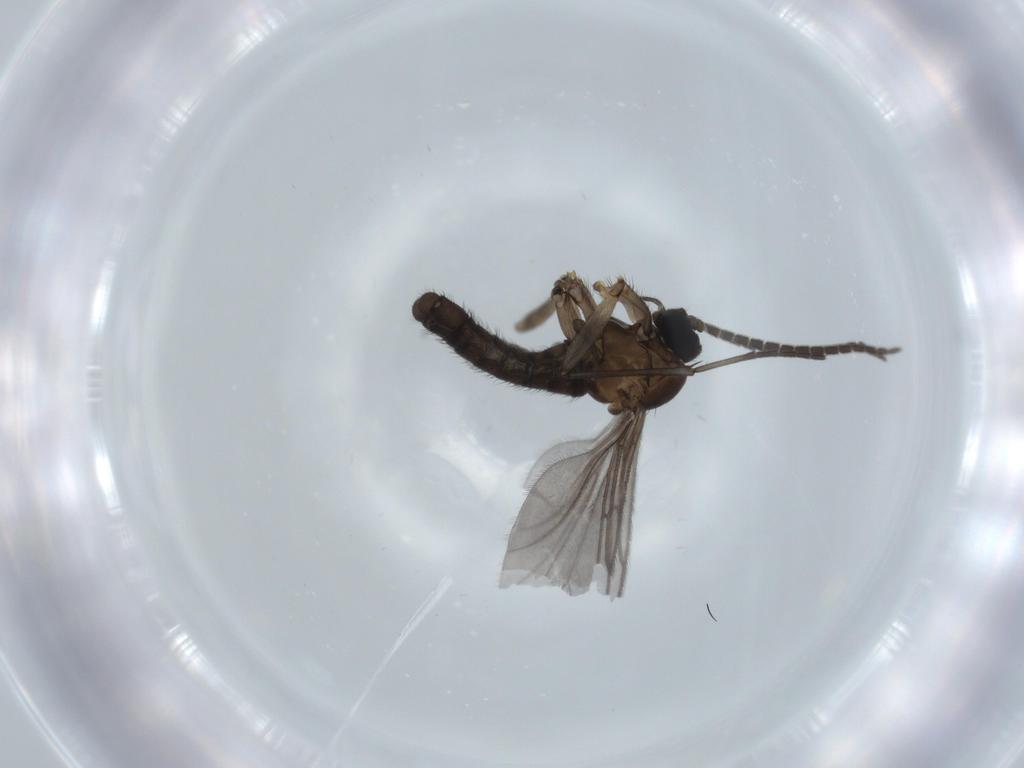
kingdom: Animalia
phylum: Arthropoda
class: Insecta
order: Diptera
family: Sciaridae
